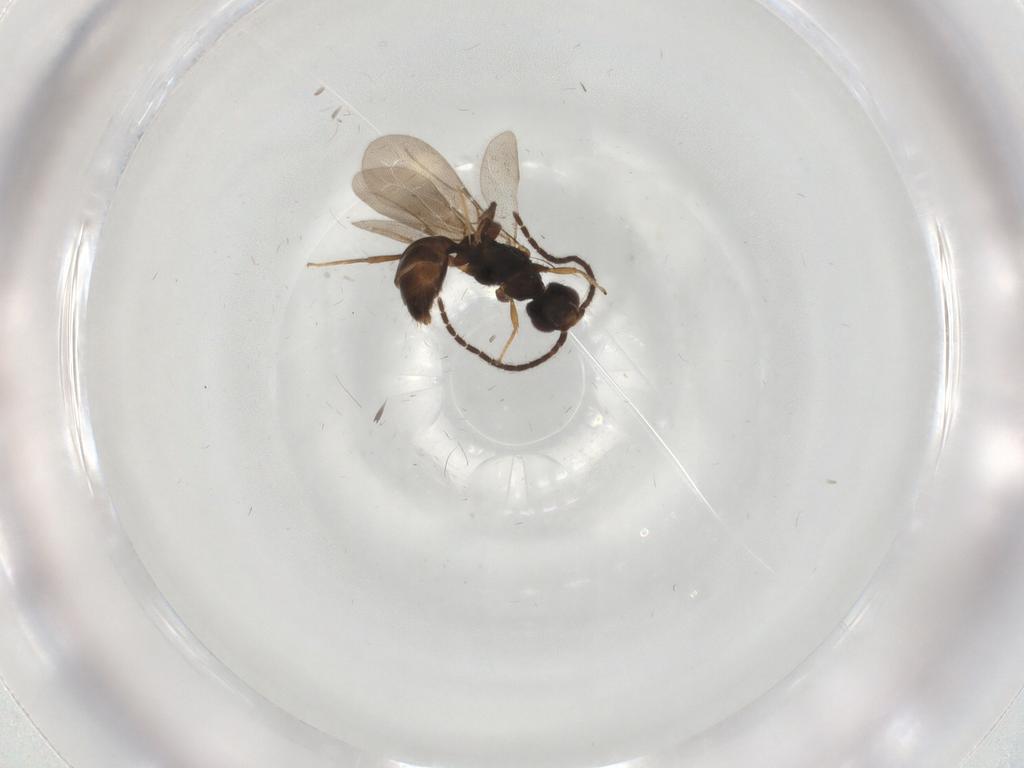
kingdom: Animalia
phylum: Arthropoda
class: Insecta
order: Hymenoptera
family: Bethylidae
